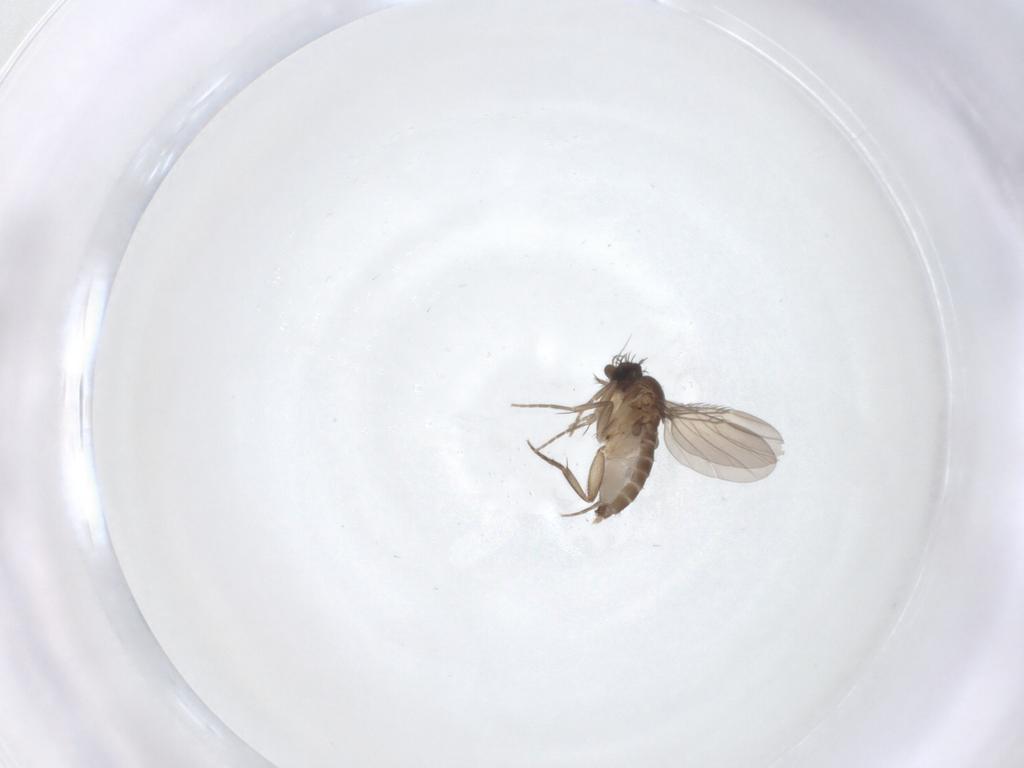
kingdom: Animalia
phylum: Arthropoda
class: Insecta
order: Diptera
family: Phoridae
